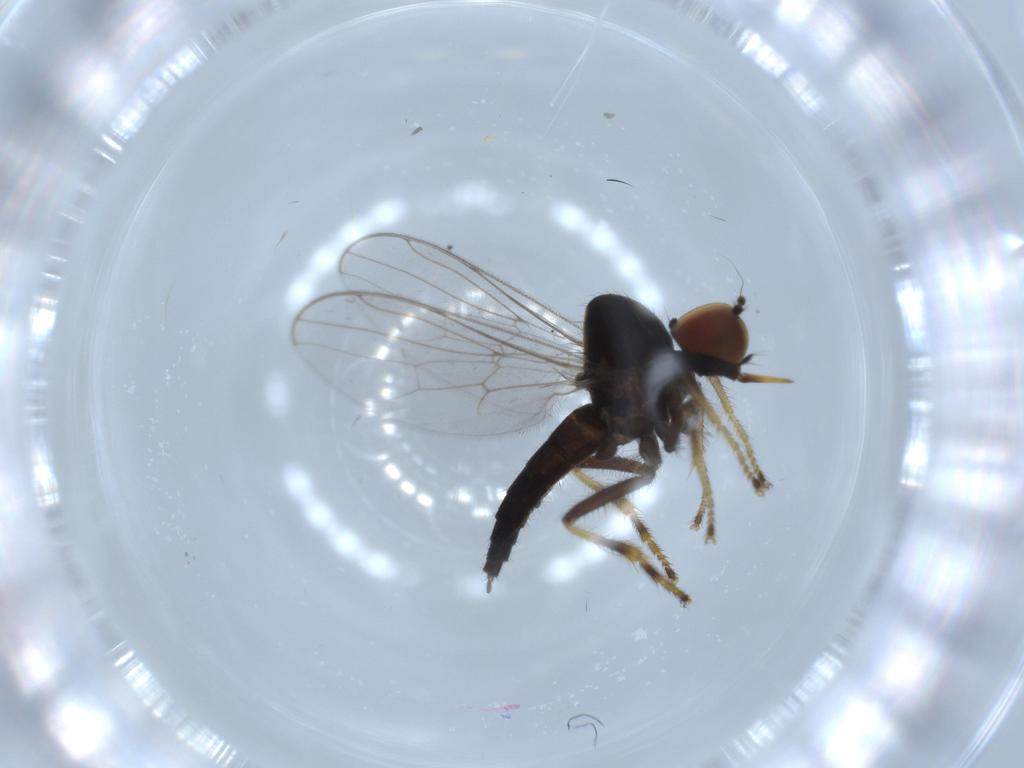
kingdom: Animalia
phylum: Arthropoda
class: Insecta
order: Diptera
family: Hybotidae
